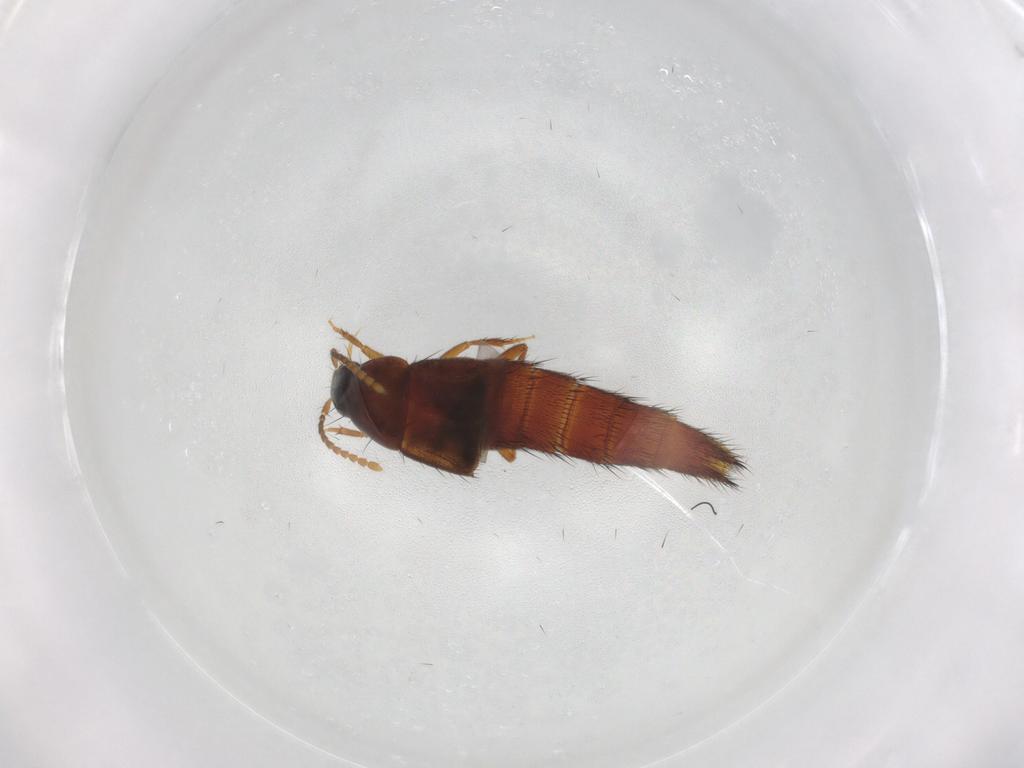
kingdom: Animalia
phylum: Arthropoda
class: Insecta
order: Coleoptera
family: Staphylinidae
